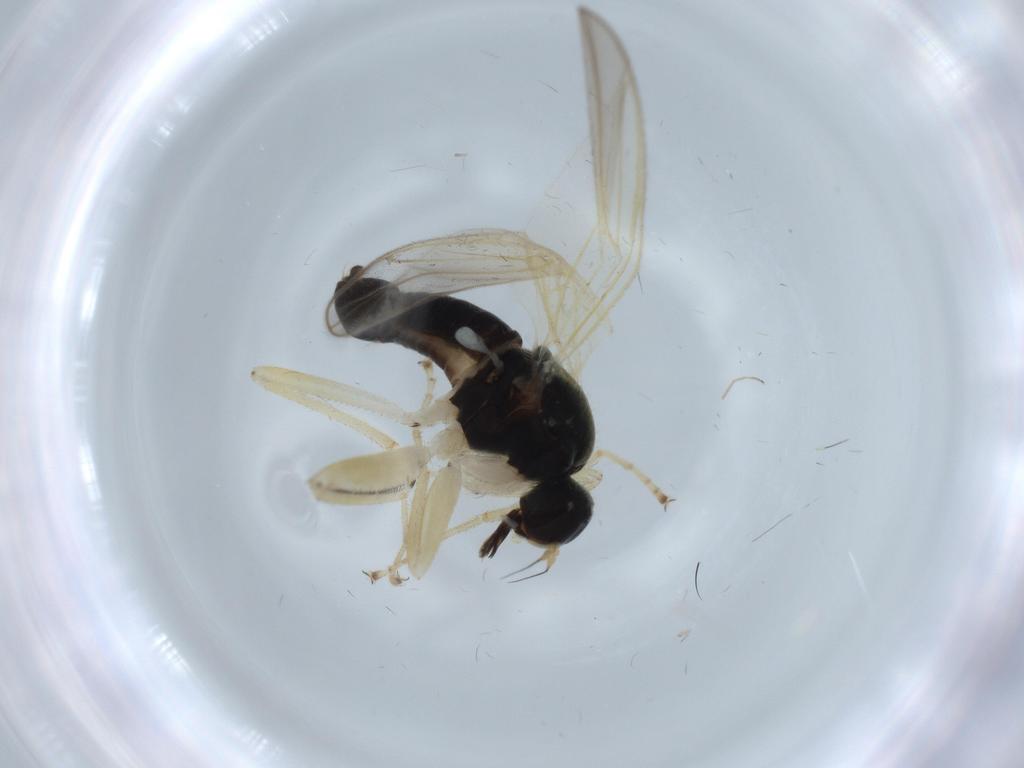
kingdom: Animalia
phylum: Arthropoda
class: Insecta
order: Diptera
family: Hybotidae
